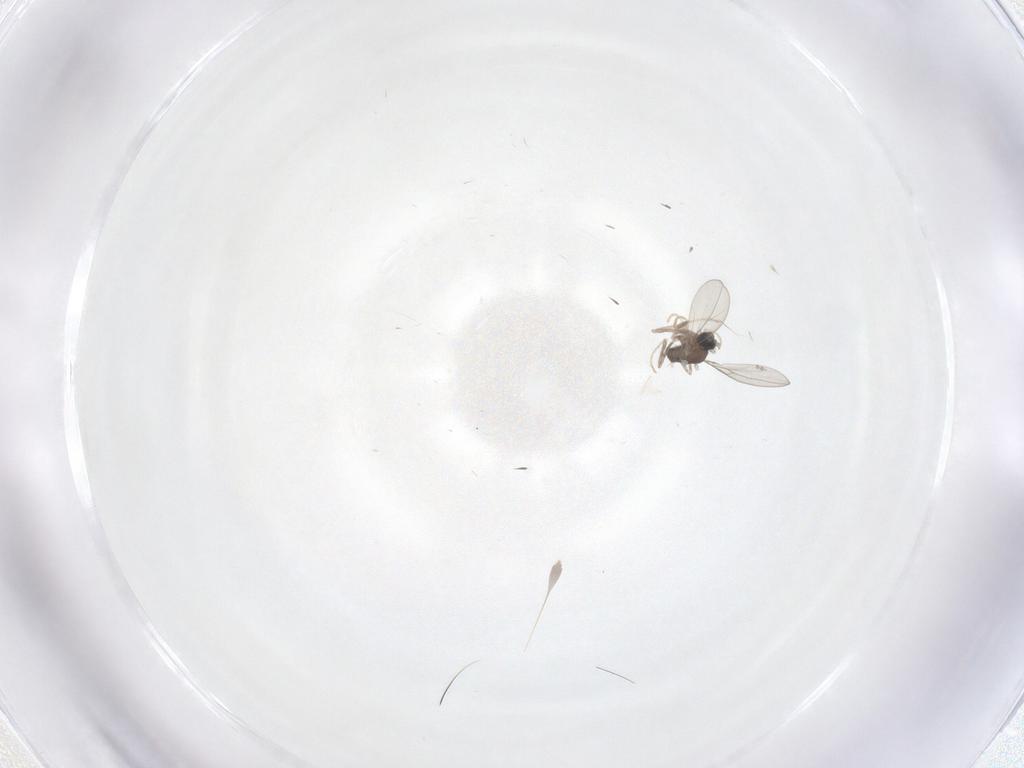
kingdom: Animalia
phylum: Arthropoda
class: Insecta
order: Diptera
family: Cecidomyiidae
